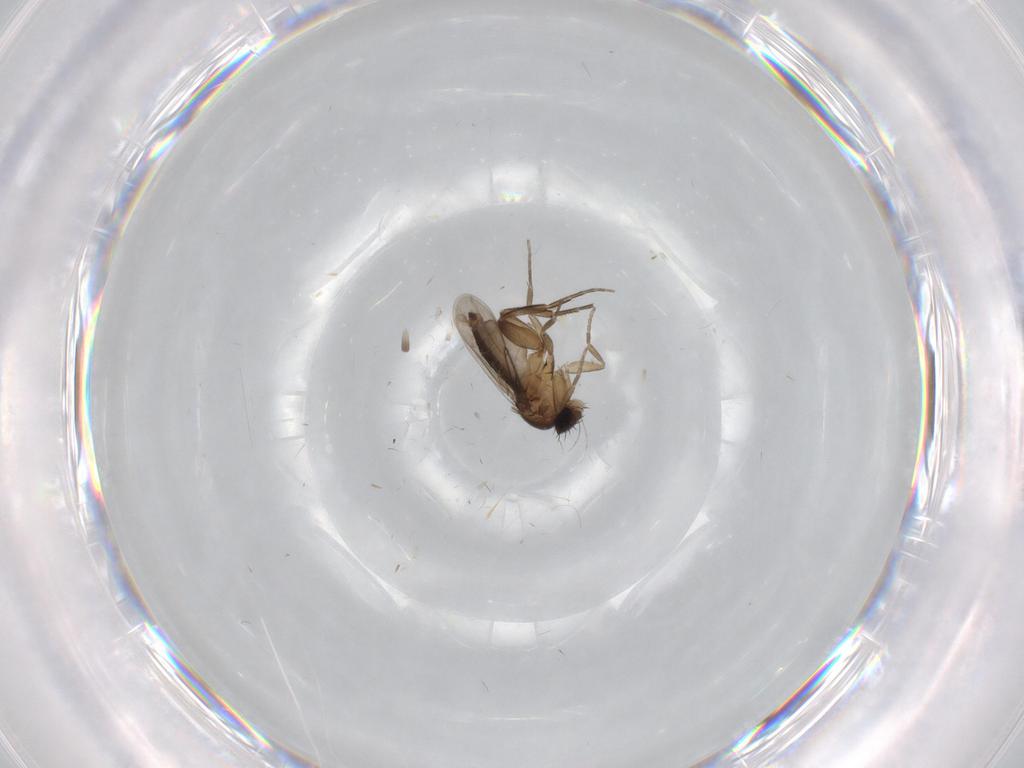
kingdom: Animalia
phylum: Arthropoda
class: Insecta
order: Diptera
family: Phoridae
